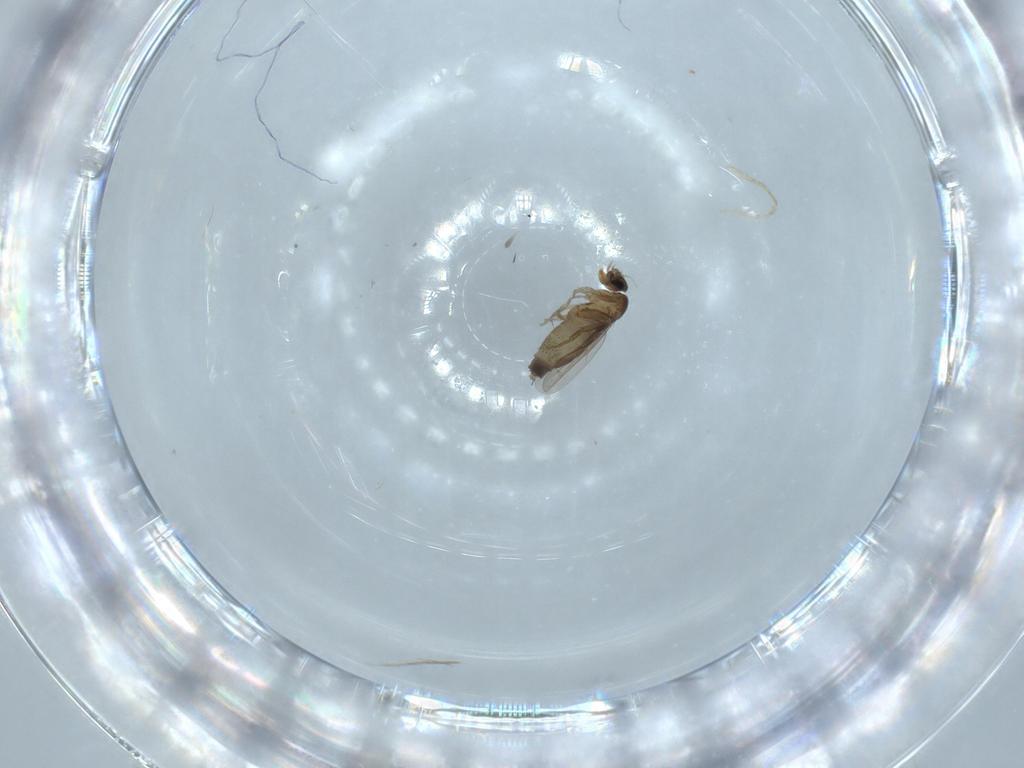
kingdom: Animalia
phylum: Arthropoda
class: Insecta
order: Diptera
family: Phoridae
